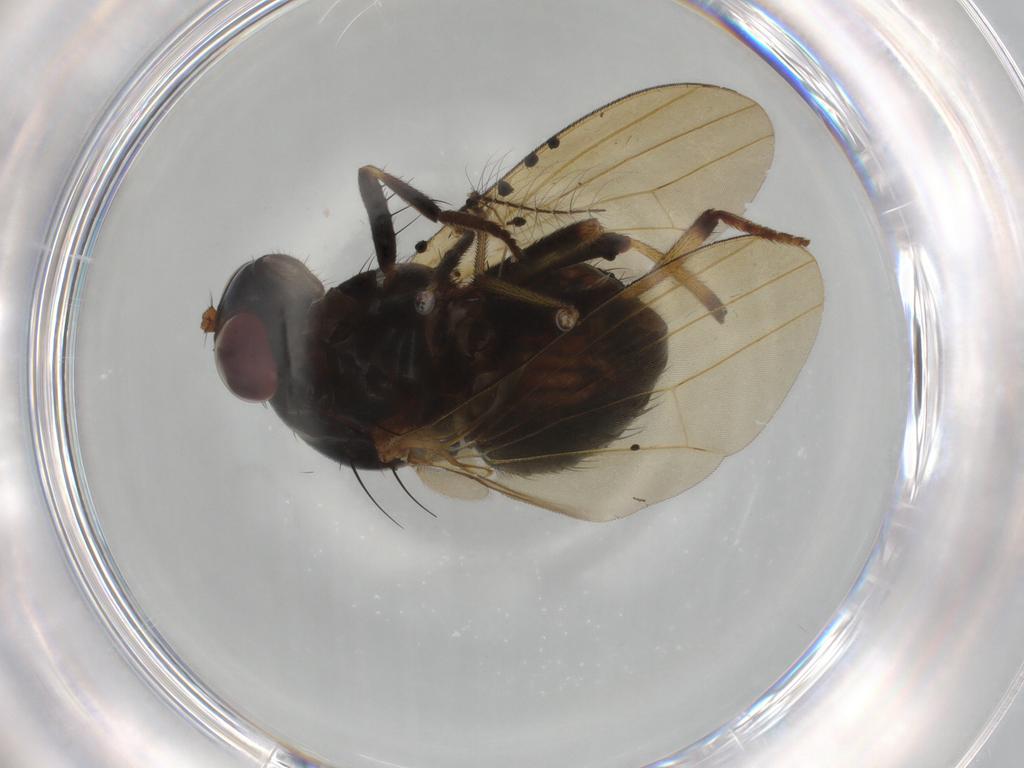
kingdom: Animalia
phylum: Arthropoda
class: Insecta
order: Diptera
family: Culicidae
